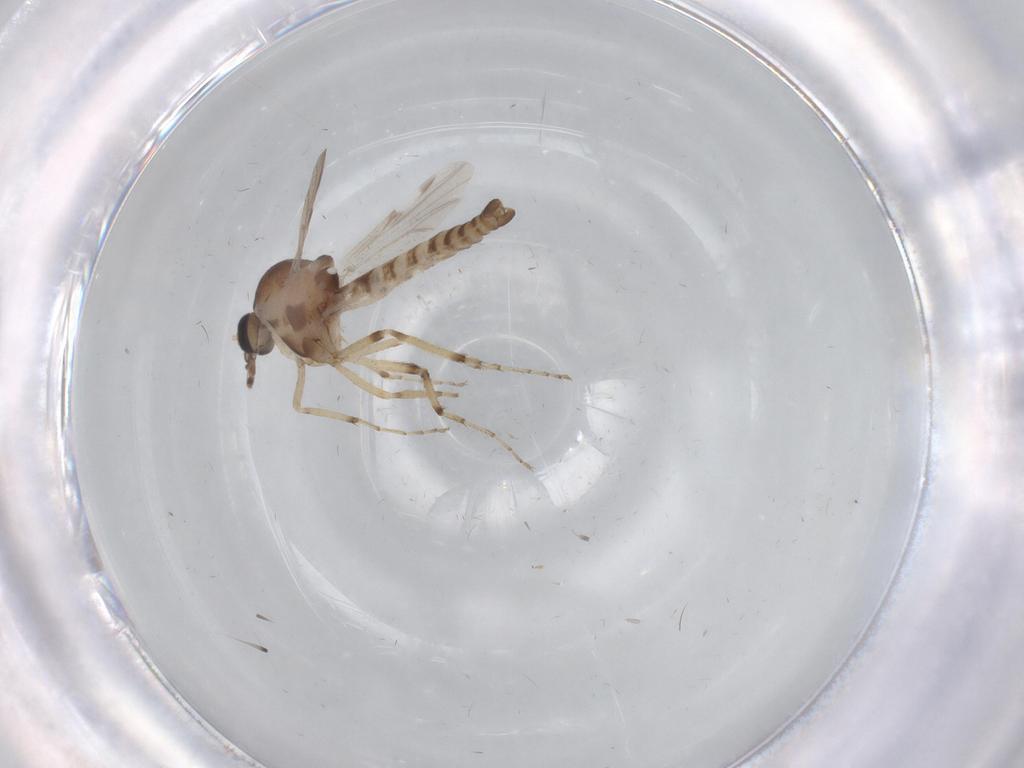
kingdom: Animalia
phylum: Arthropoda
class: Insecta
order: Diptera
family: Ceratopogonidae
